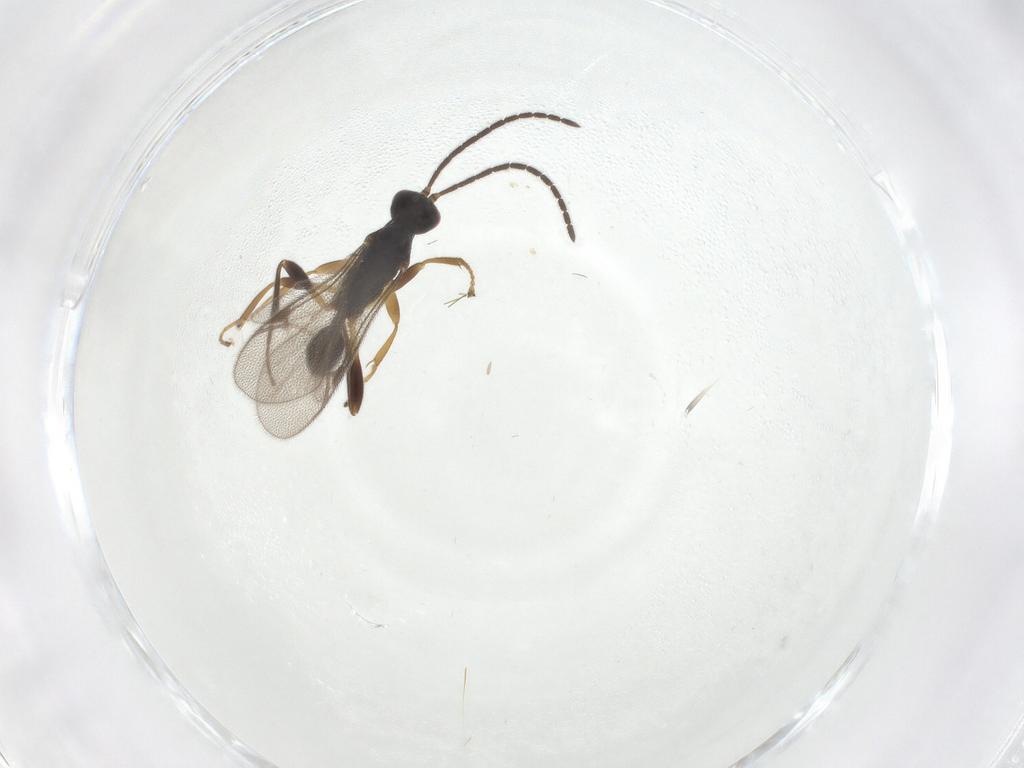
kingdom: Animalia
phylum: Arthropoda
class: Insecta
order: Hymenoptera
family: Proctotrupidae
